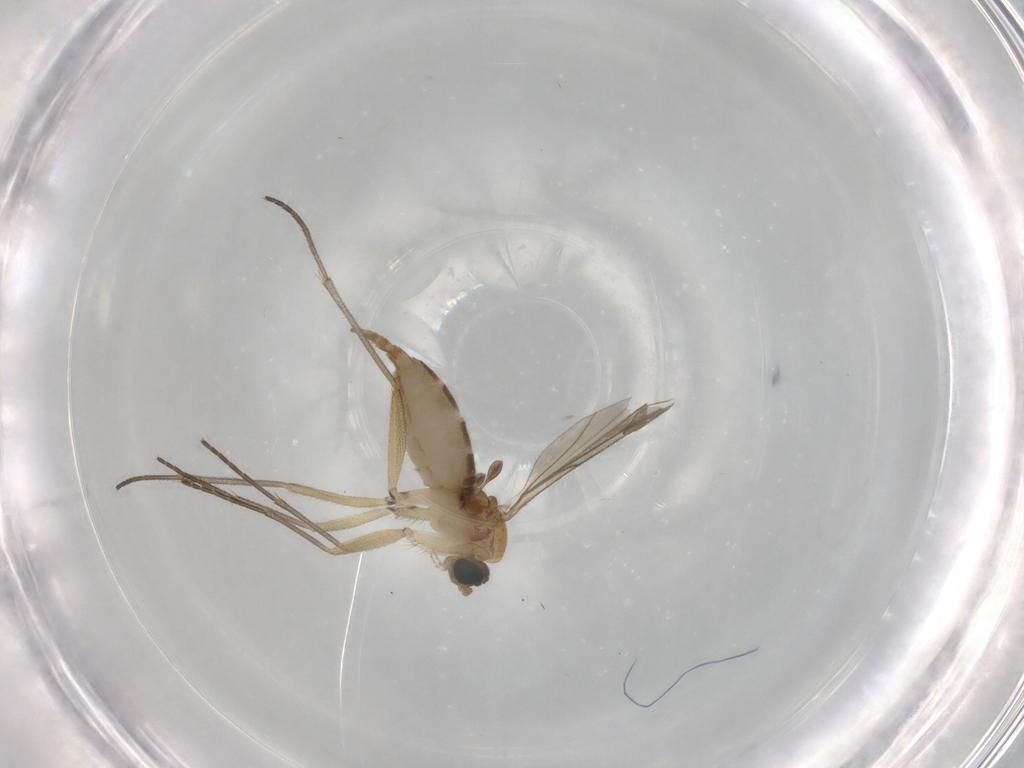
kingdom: Animalia
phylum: Arthropoda
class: Insecta
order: Diptera
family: Sciaridae
